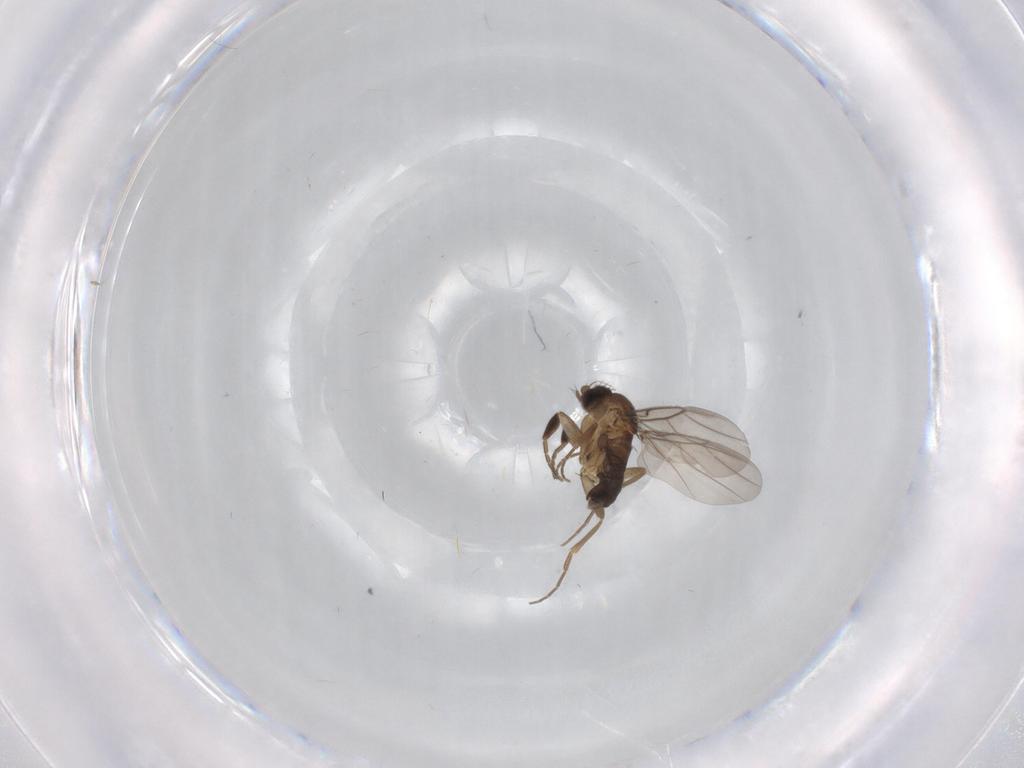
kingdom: Animalia
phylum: Arthropoda
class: Insecta
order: Diptera
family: Phoridae
